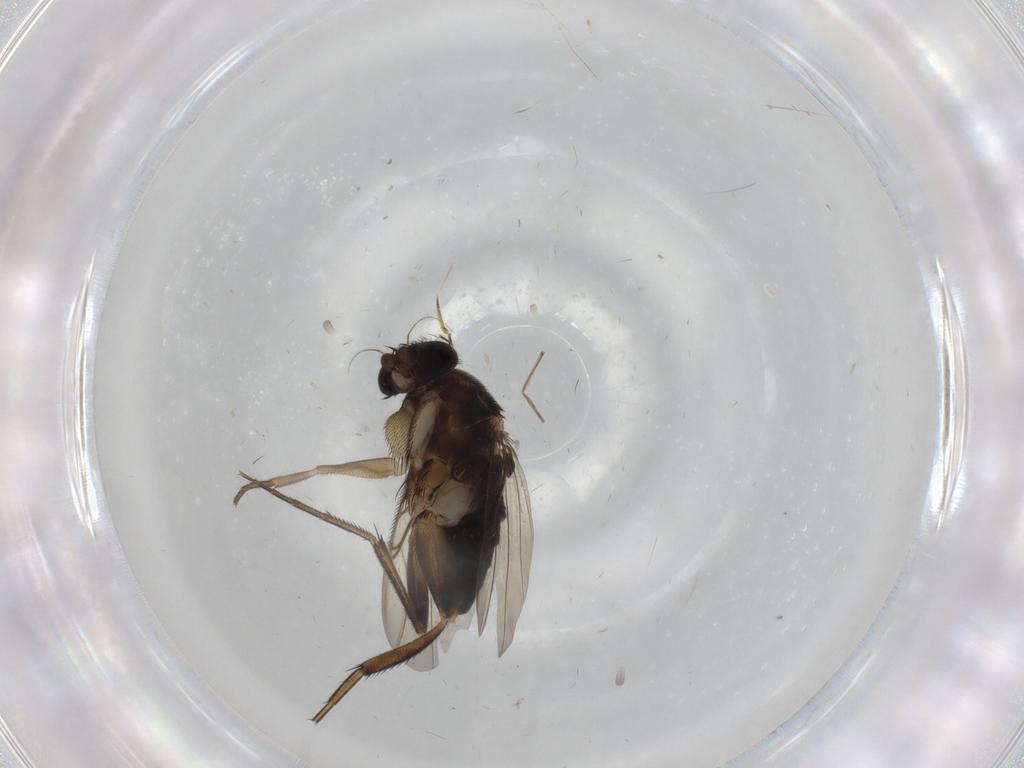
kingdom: Animalia
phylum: Arthropoda
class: Insecta
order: Diptera
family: Phoridae
